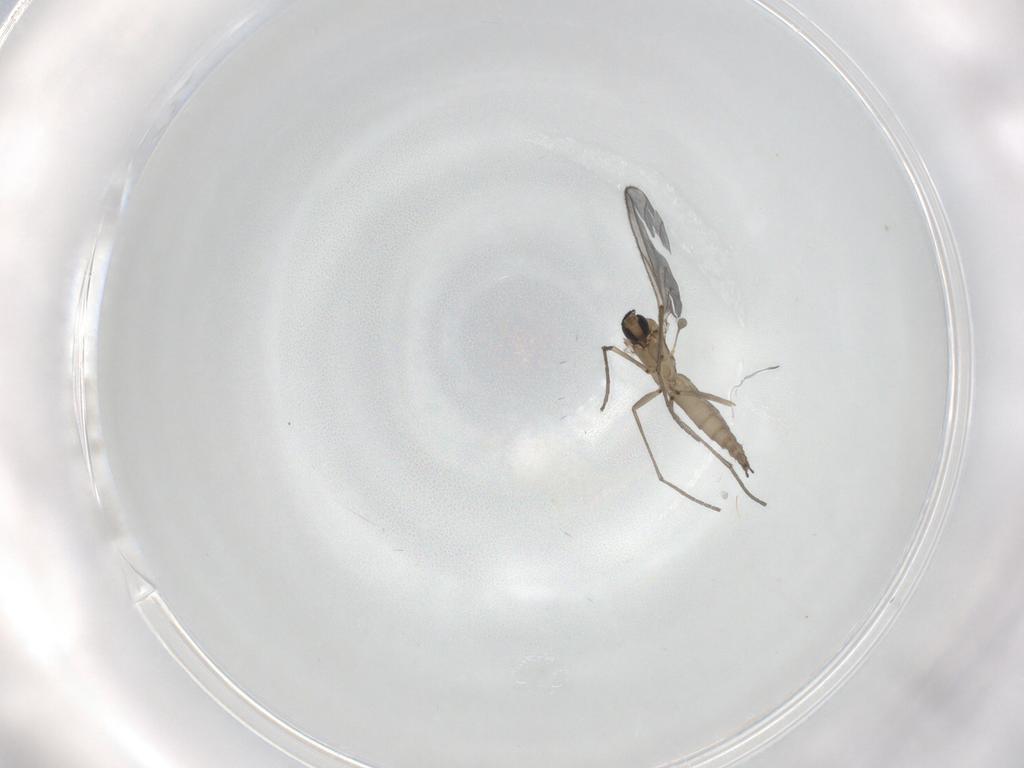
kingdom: Animalia
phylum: Arthropoda
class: Insecta
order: Diptera
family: Sciaridae
